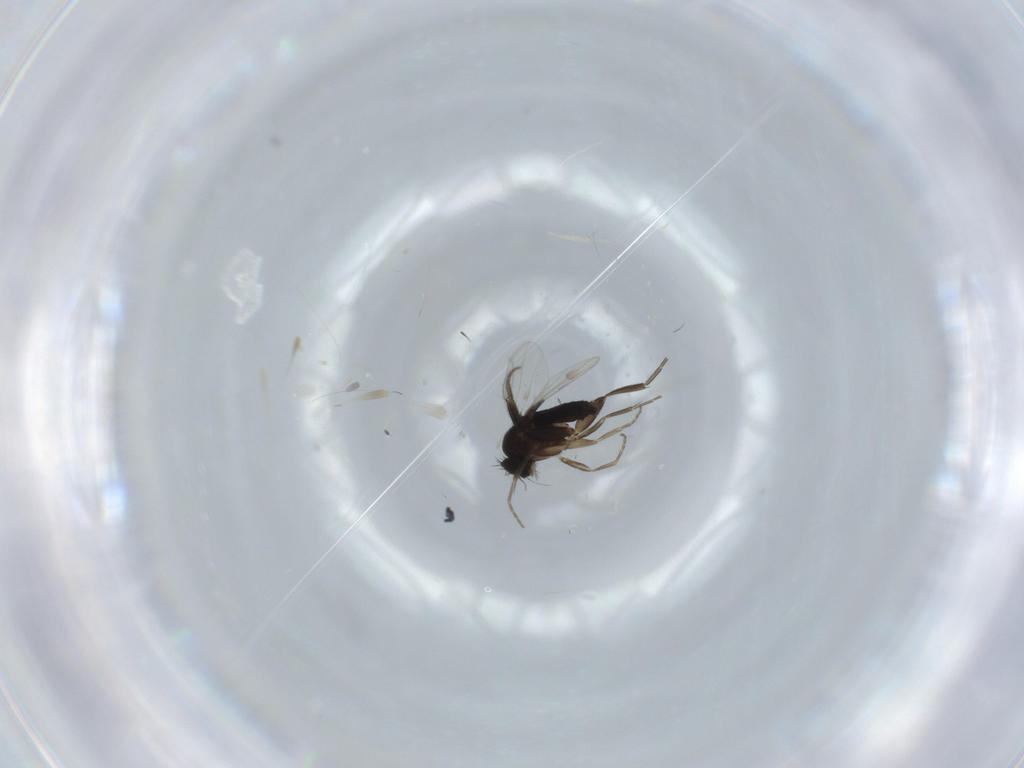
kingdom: Animalia
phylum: Arthropoda
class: Insecta
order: Diptera
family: Phoridae
